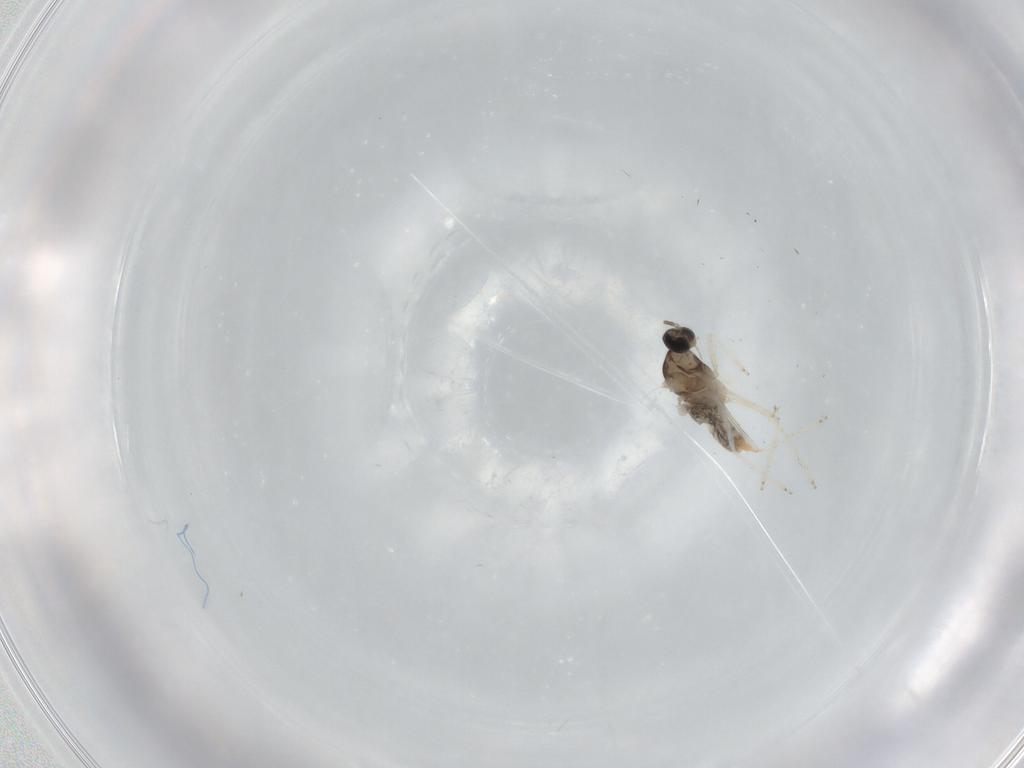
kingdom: Animalia
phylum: Arthropoda
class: Insecta
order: Diptera
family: Cecidomyiidae
